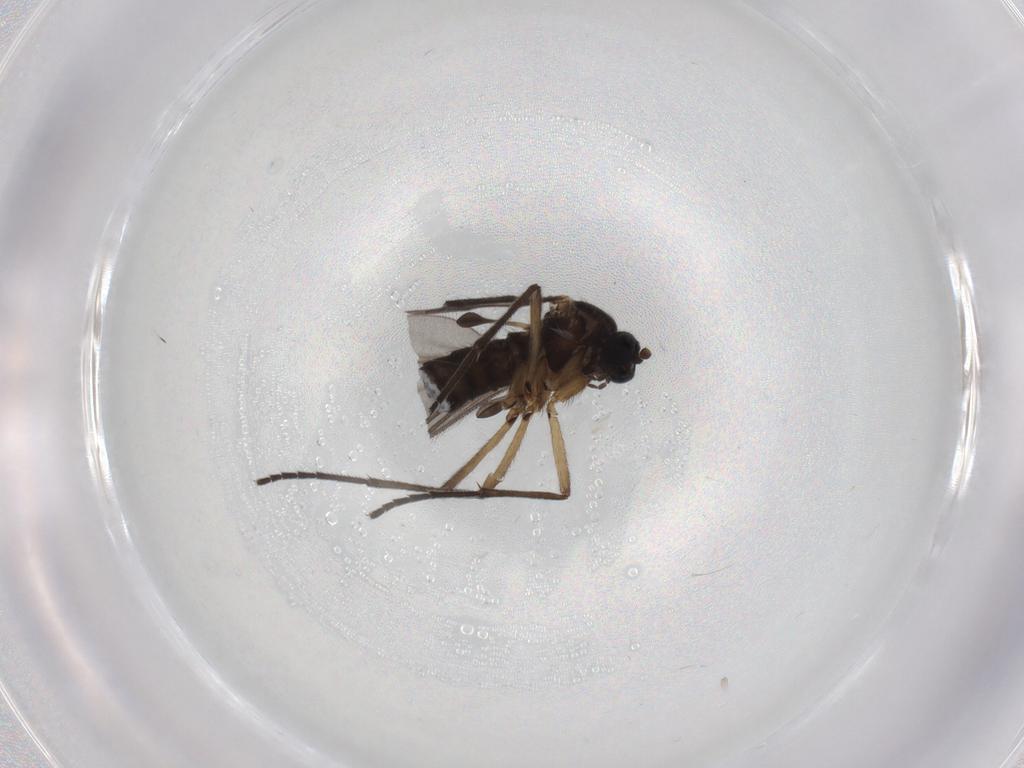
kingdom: Animalia
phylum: Arthropoda
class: Insecta
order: Diptera
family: Sciaridae
